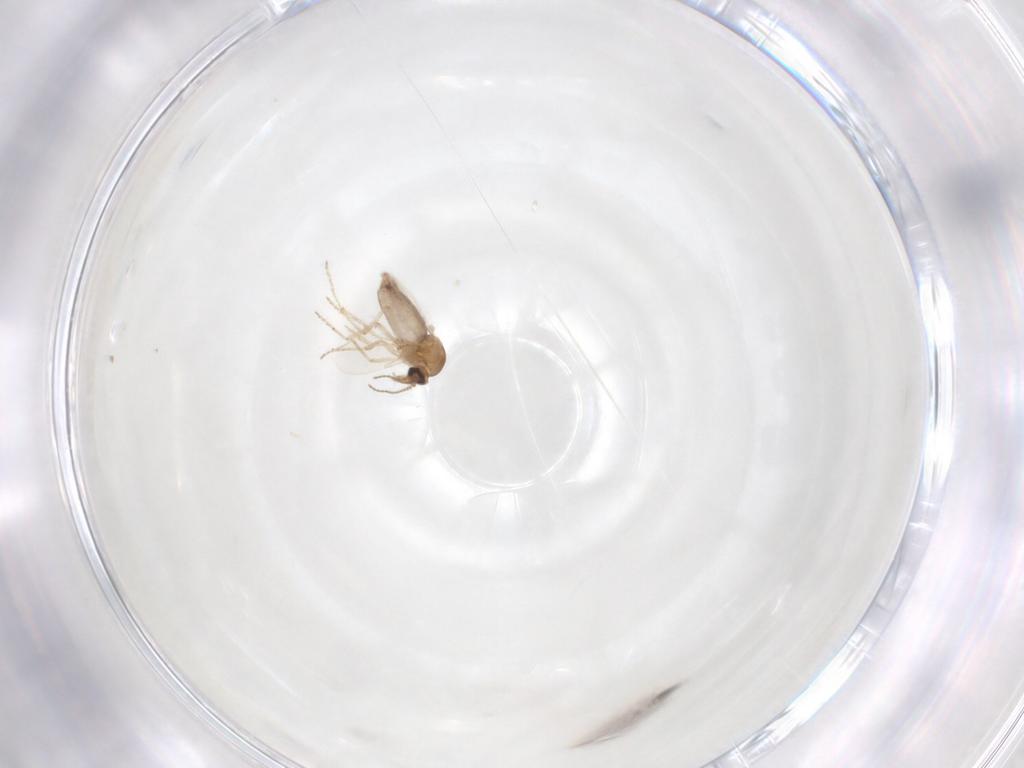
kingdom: Animalia
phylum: Arthropoda
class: Insecta
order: Diptera
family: Ceratopogonidae
